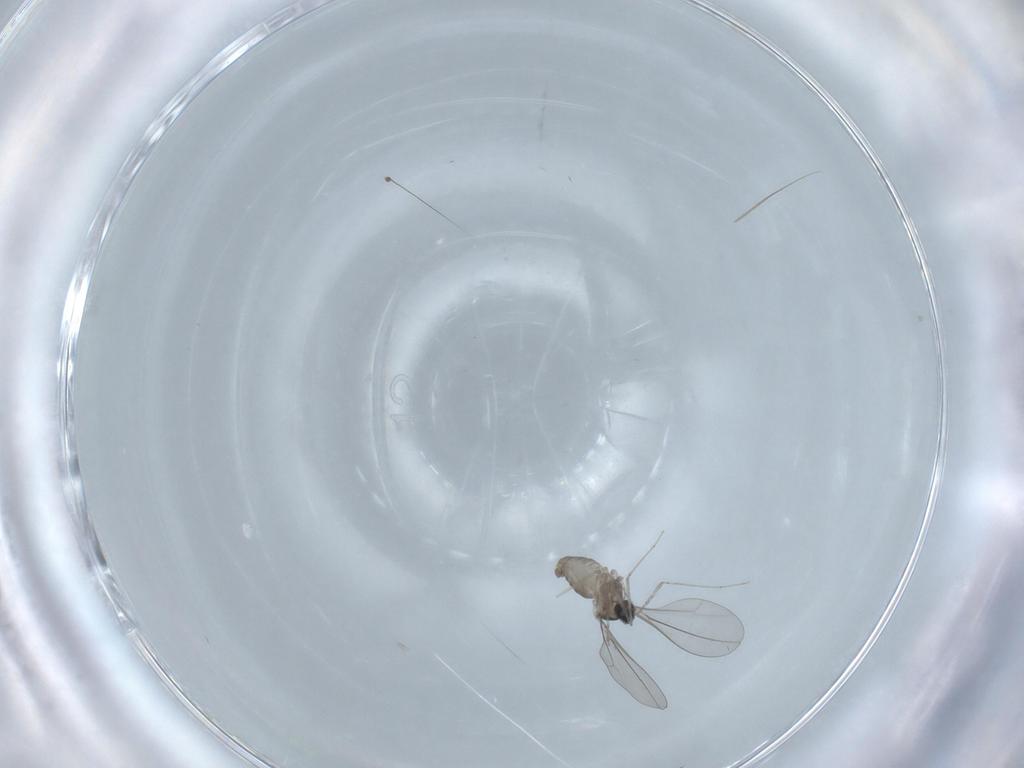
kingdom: Animalia
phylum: Arthropoda
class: Insecta
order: Diptera
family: Sciaridae
